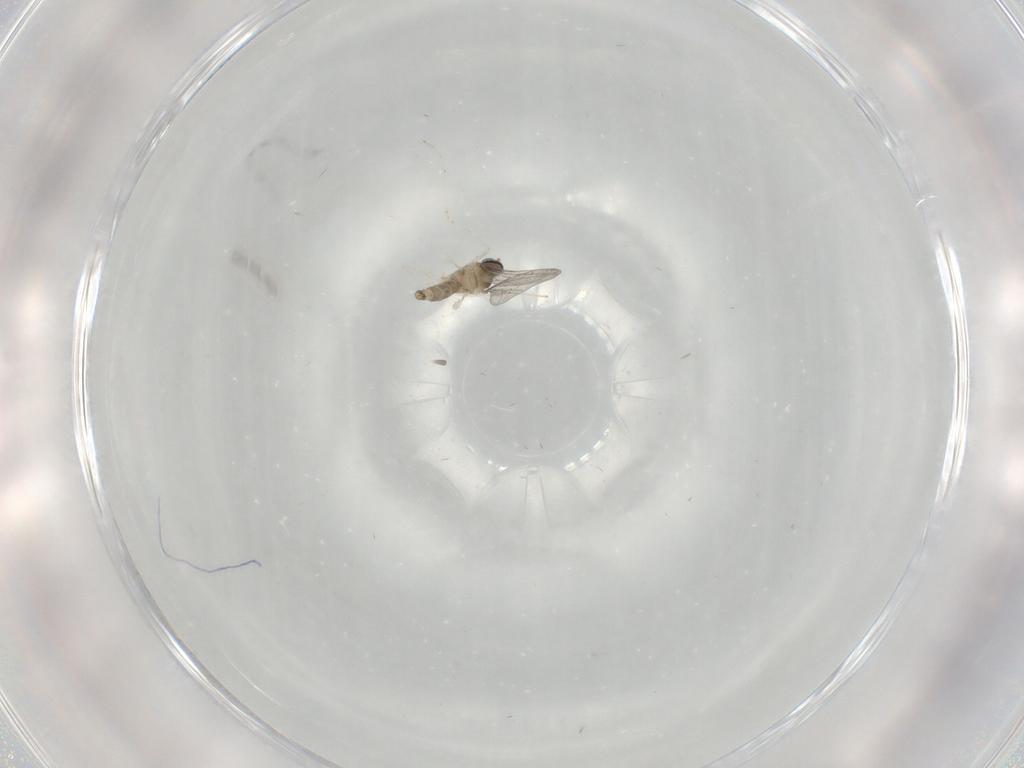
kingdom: Animalia
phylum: Arthropoda
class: Insecta
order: Diptera
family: Cecidomyiidae
